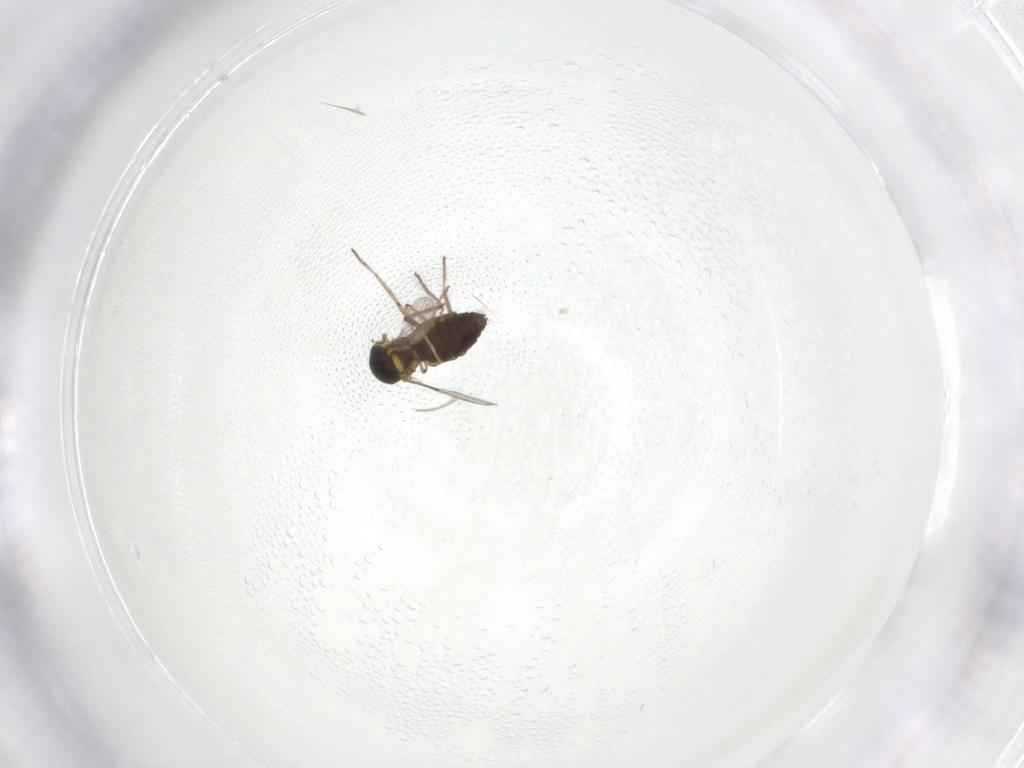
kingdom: Animalia
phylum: Arthropoda
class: Insecta
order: Diptera
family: Ceratopogonidae
